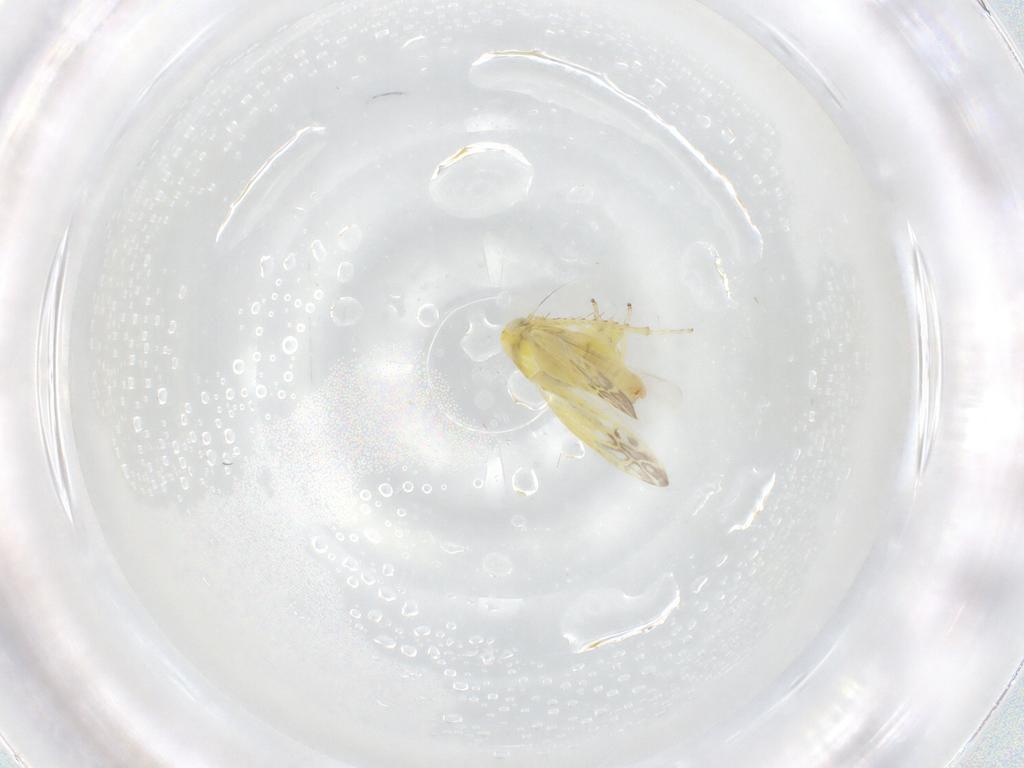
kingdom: Animalia
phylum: Arthropoda
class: Insecta
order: Hemiptera
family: Cicadellidae
